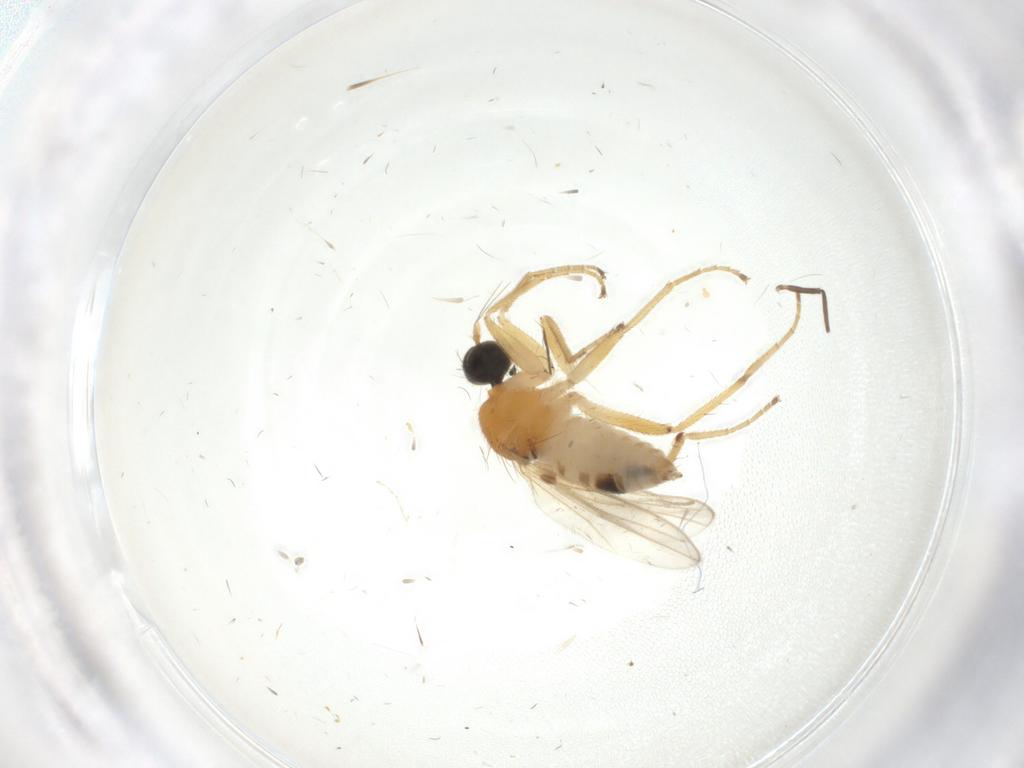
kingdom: Animalia
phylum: Arthropoda
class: Insecta
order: Diptera
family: Hybotidae
